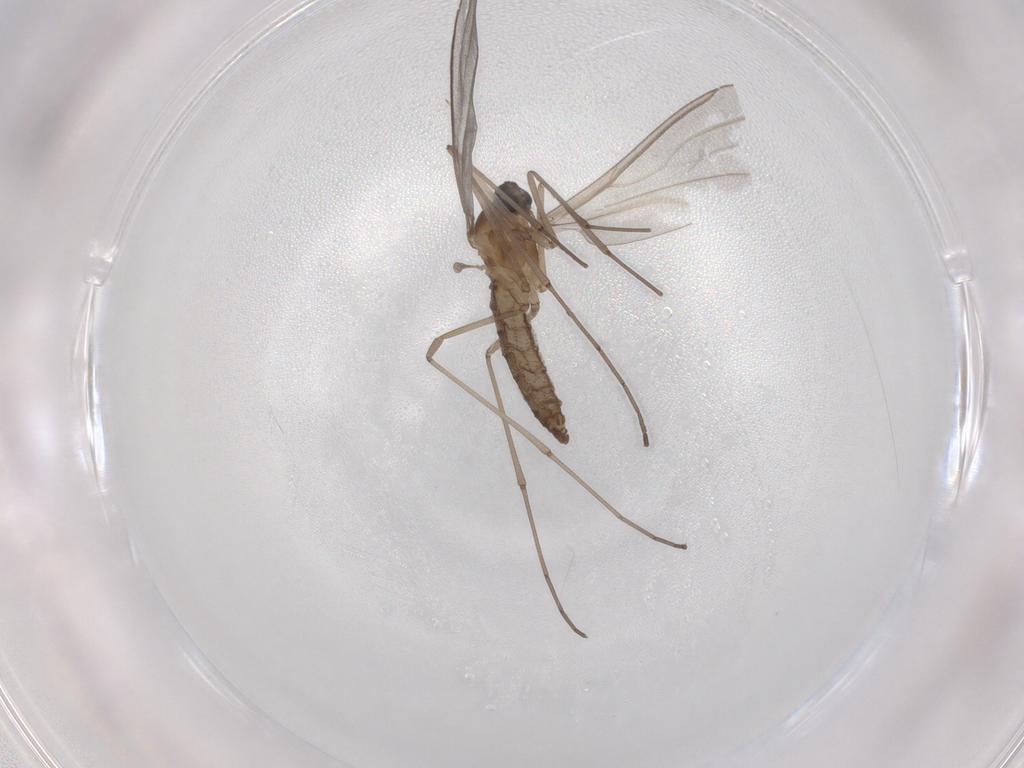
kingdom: Animalia
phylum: Arthropoda
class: Insecta
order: Diptera
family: Cecidomyiidae
